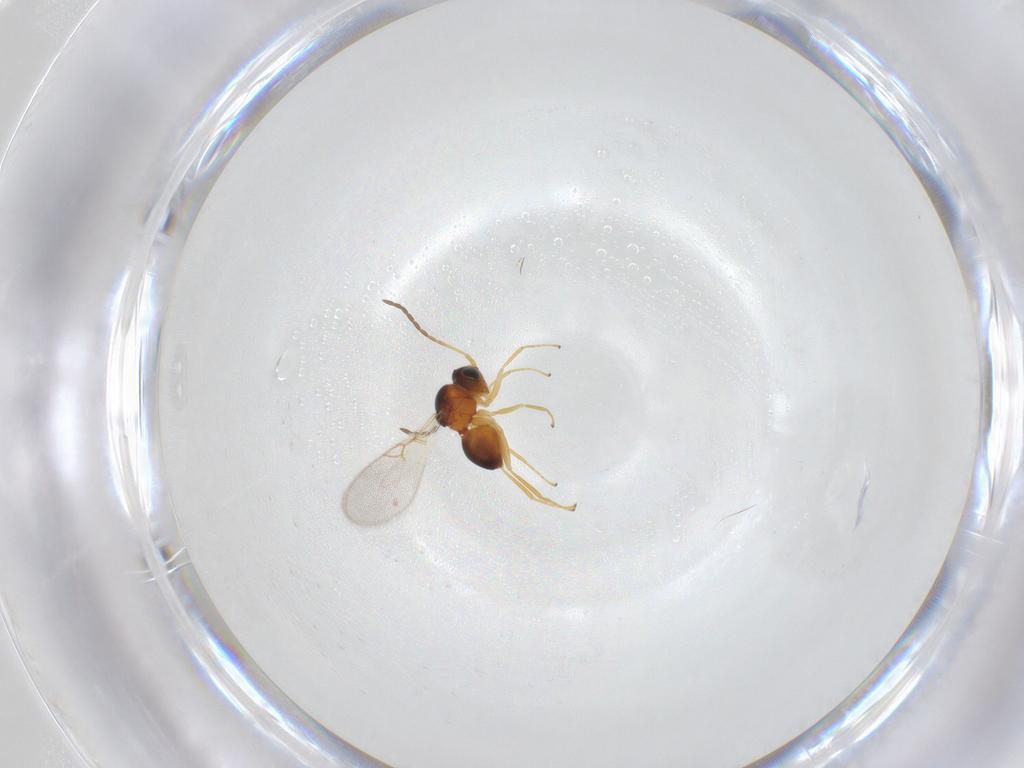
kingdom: Animalia
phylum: Arthropoda
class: Insecta
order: Hymenoptera
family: Figitidae
